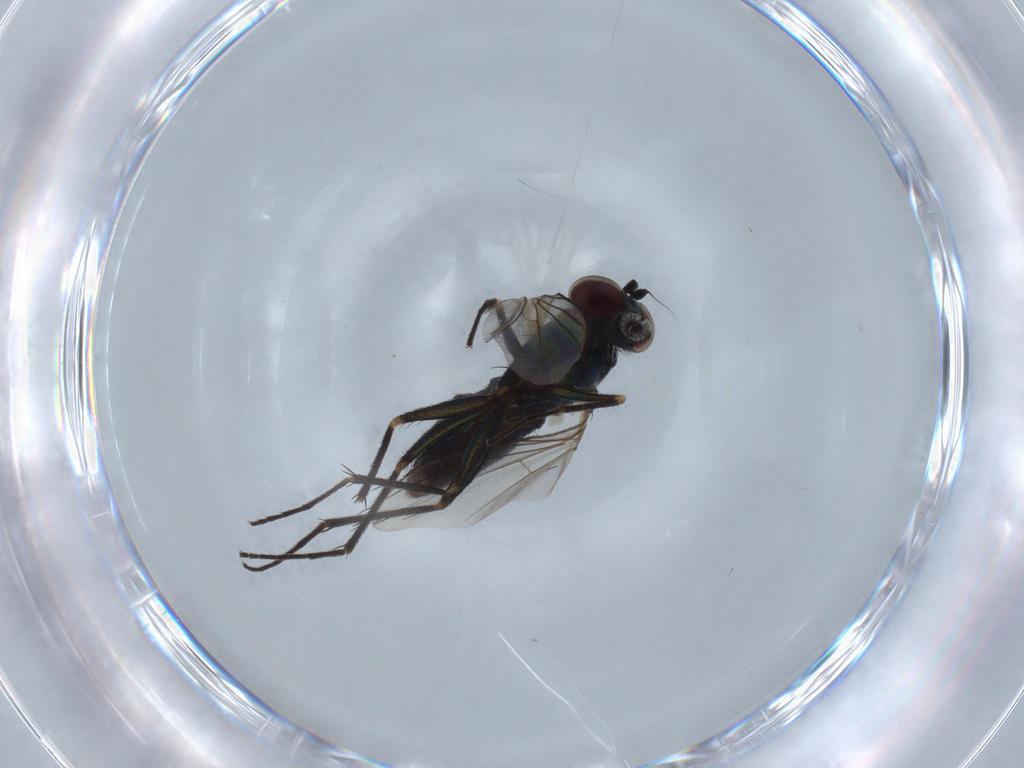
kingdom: Animalia
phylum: Arthropoda
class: Insecta
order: Diptera
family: Dolichopodidae
